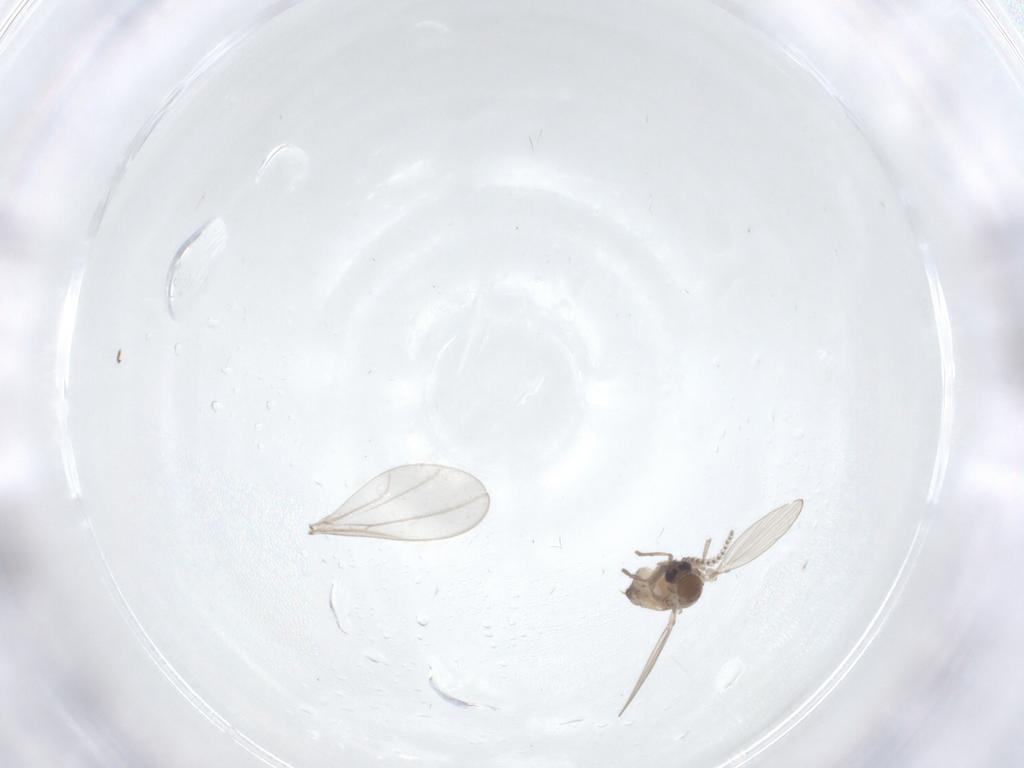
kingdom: Animalia
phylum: Arthropoda
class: Insecta
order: Diptera
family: Psychodidae
